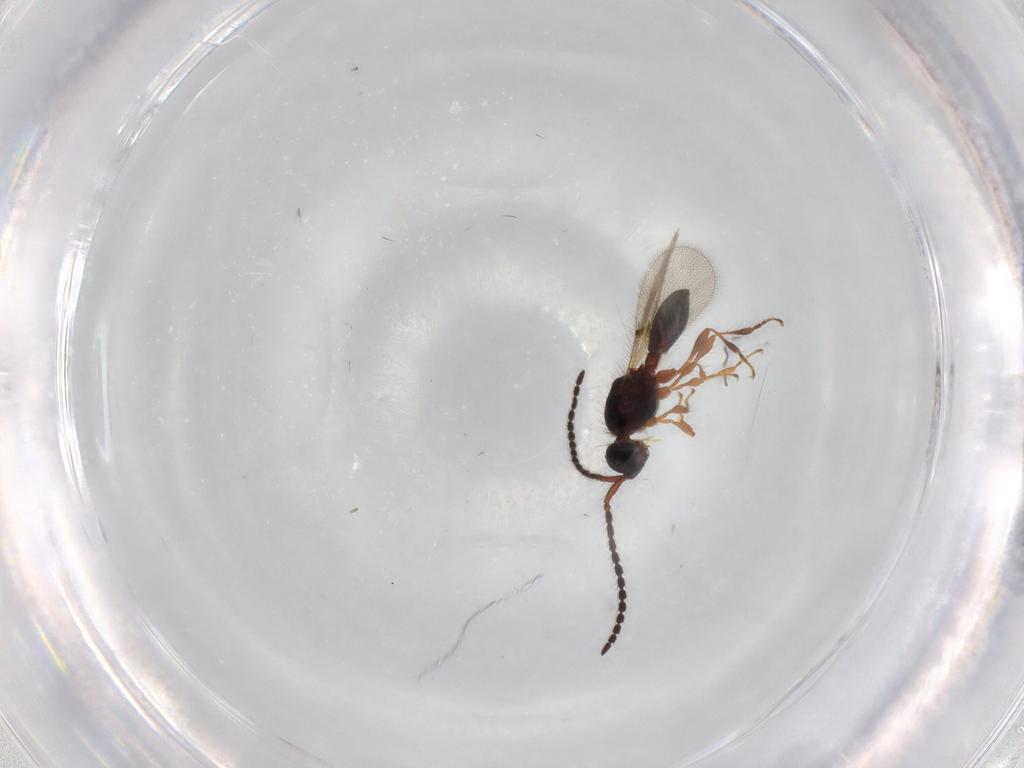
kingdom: Animalia
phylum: Arthropoda
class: Insecta
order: Hymenoptera
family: Diapriidae
